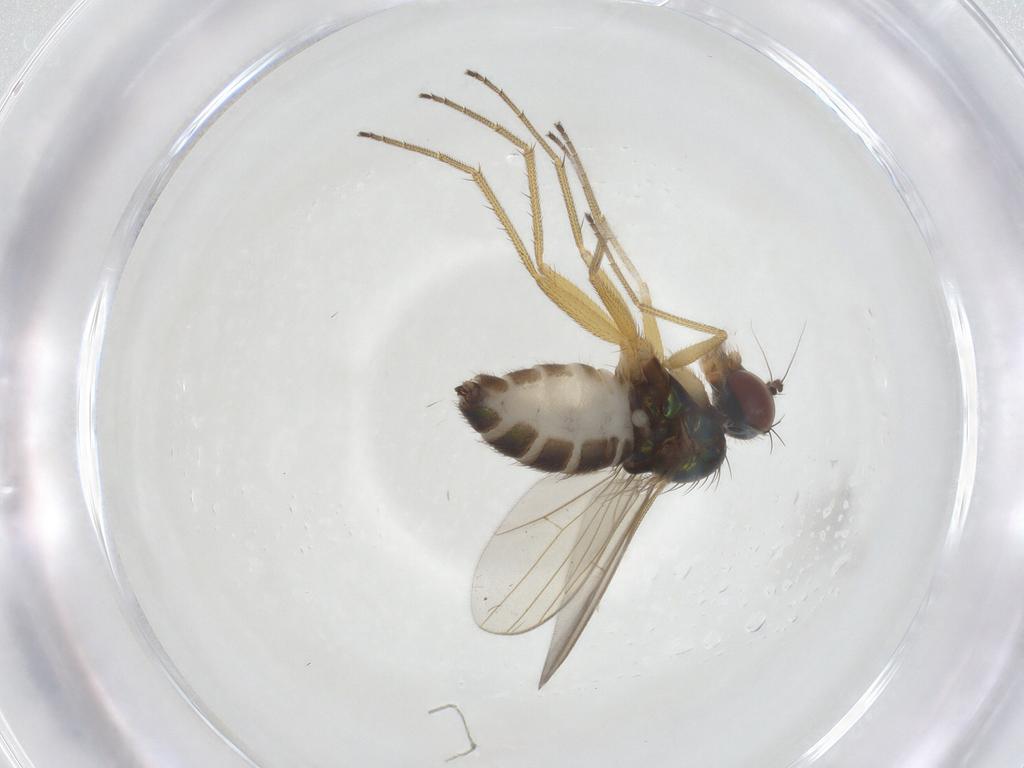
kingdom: Animalia
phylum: Arthropoda
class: Insecta
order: Diptera
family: Dolichopodidae
